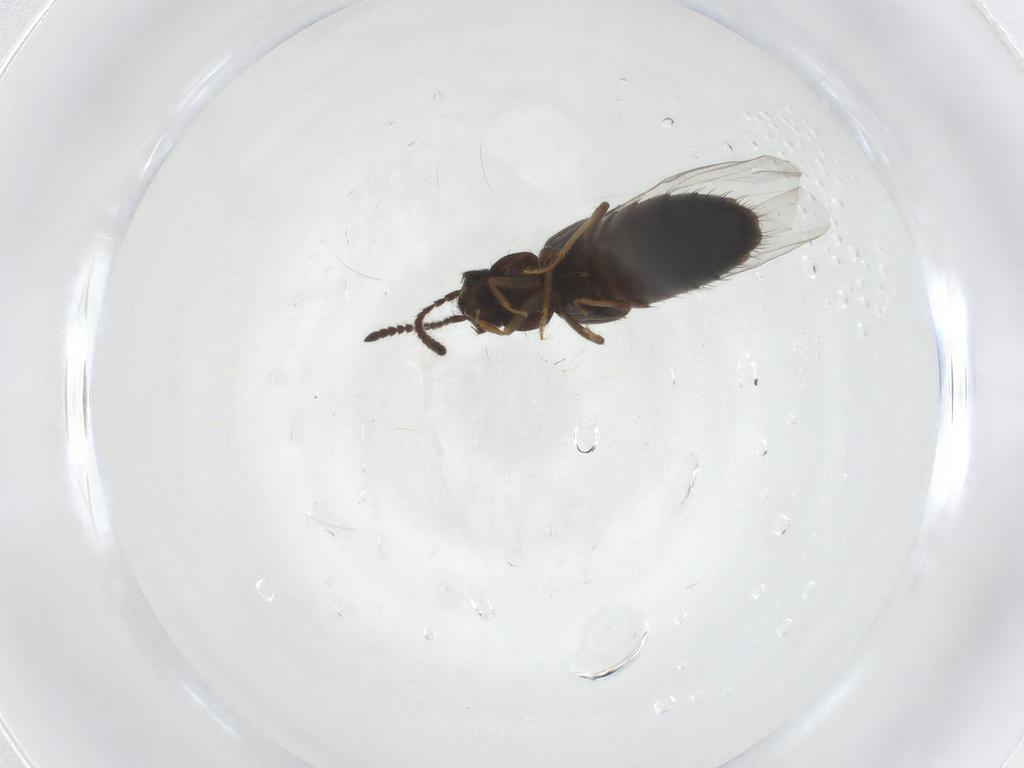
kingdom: Animalia
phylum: Arthropoda
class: Insecta
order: Coleoptera
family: Staphylinidae
